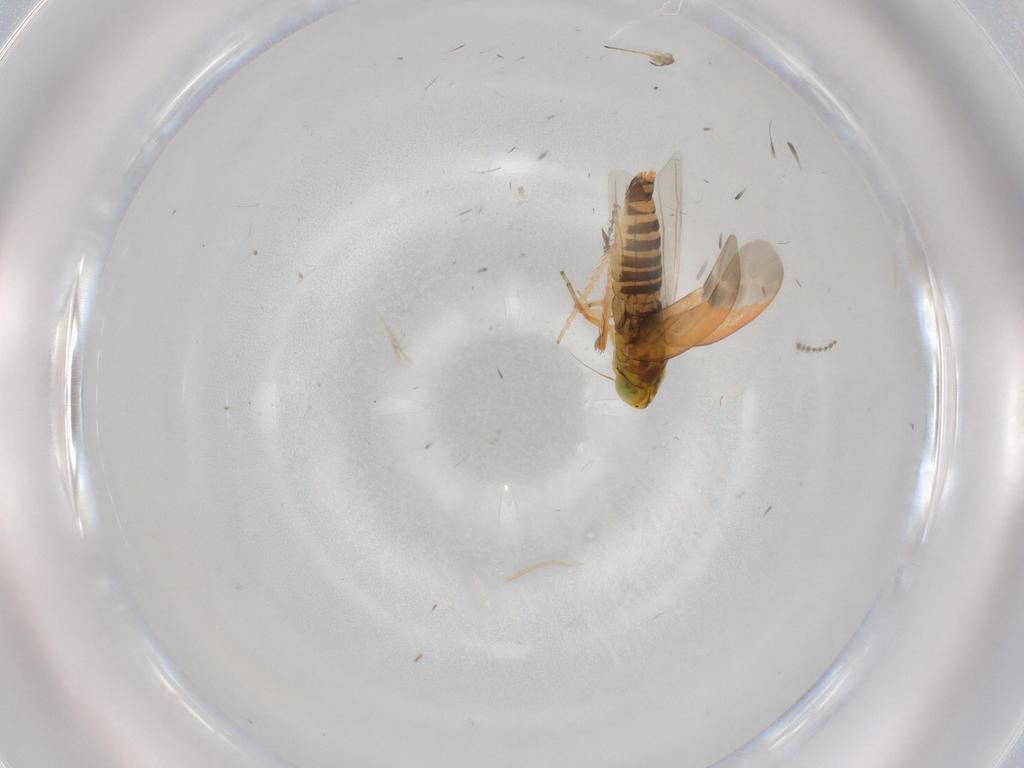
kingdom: Animalia
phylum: Arthropoda
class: Insecta
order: Hemiptera
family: Cicadellidae
